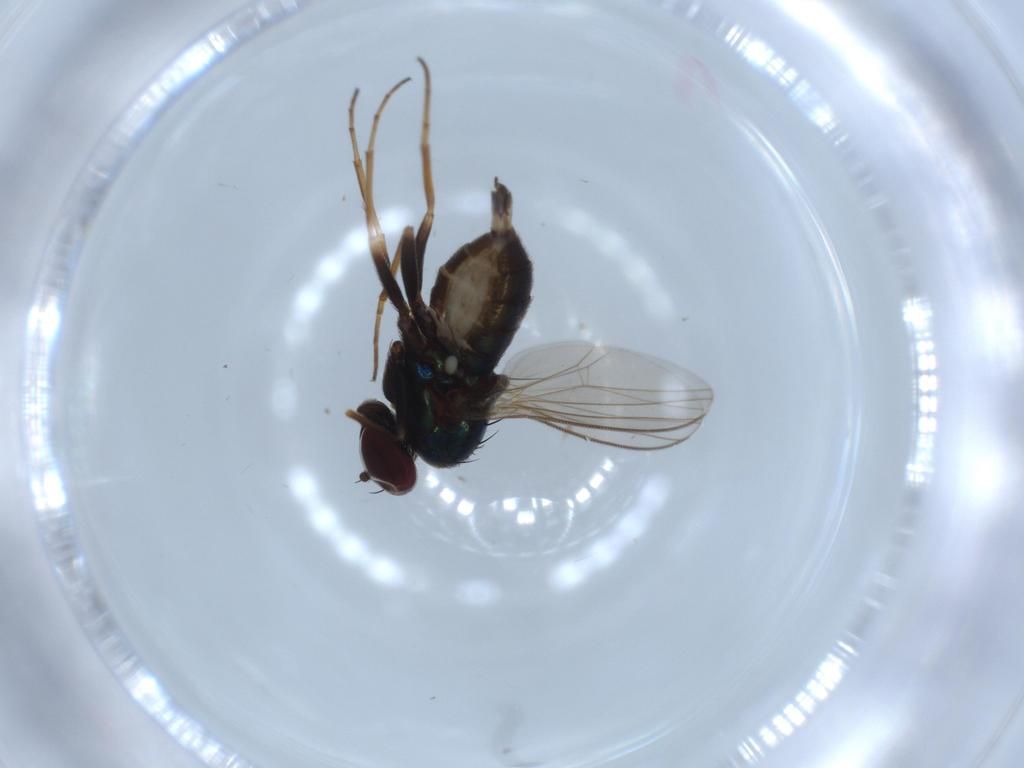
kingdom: Animalia
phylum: Arthropoda
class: Insecta
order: Diptera
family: Dolichopodidae
